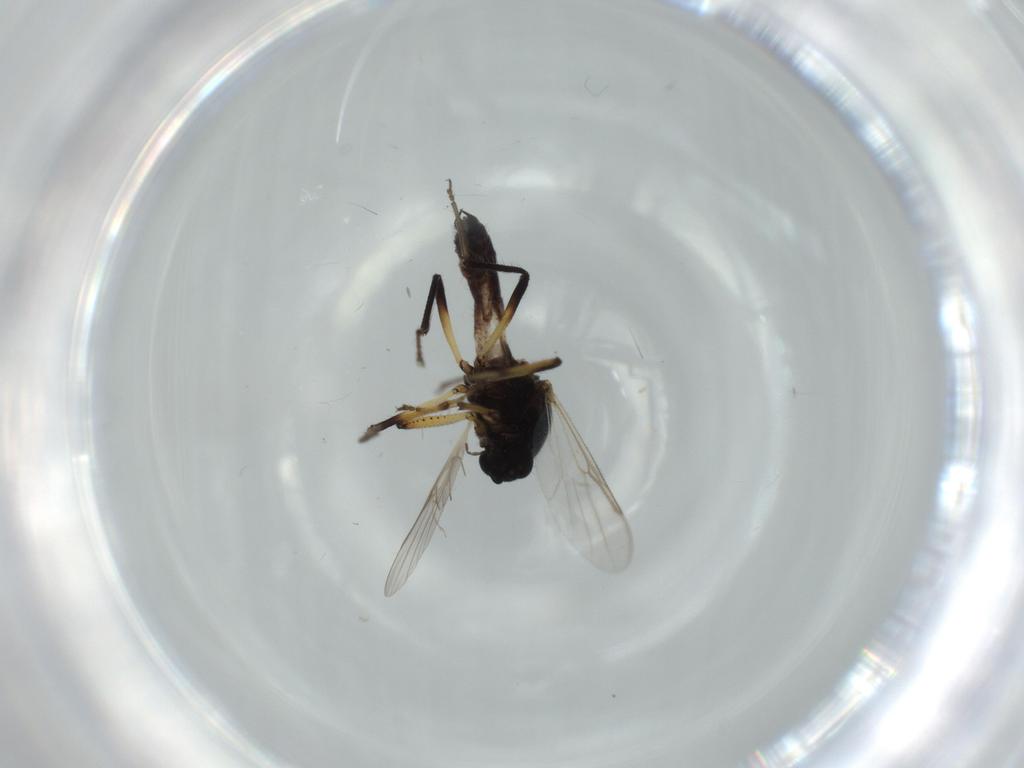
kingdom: Animalia
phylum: Arthropoda
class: Insecta
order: Diptera
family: Ceratopogonidae
